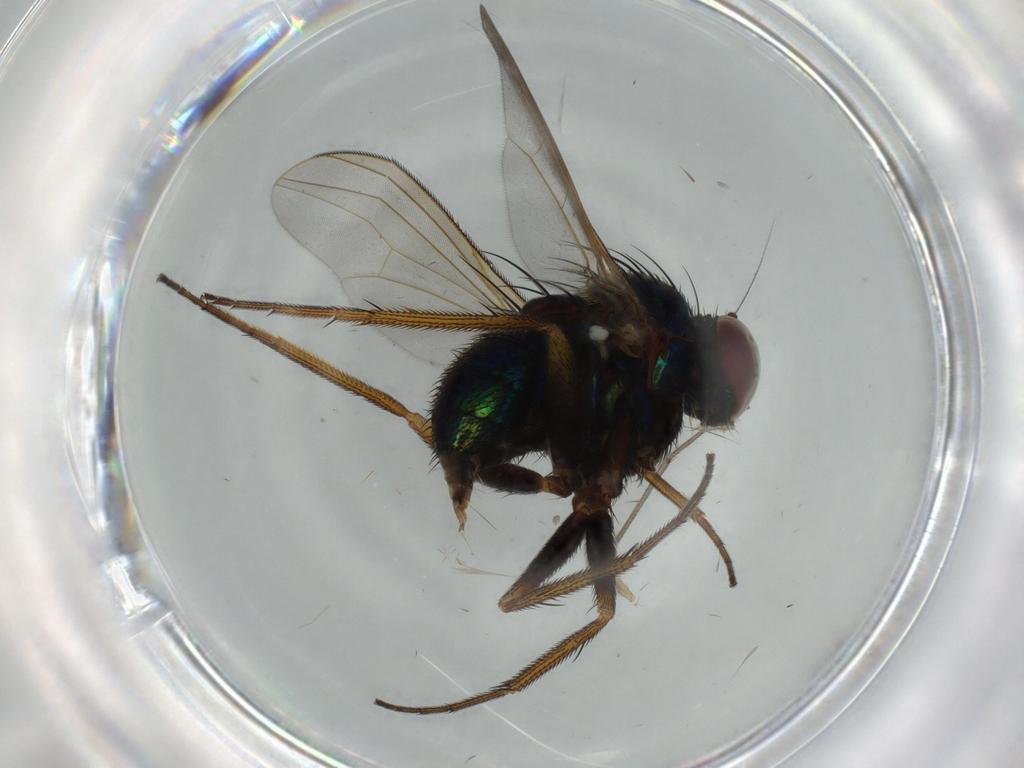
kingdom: Animalia
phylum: Arthropoda
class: Insecta
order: Diptera
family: Dolichopodidae
